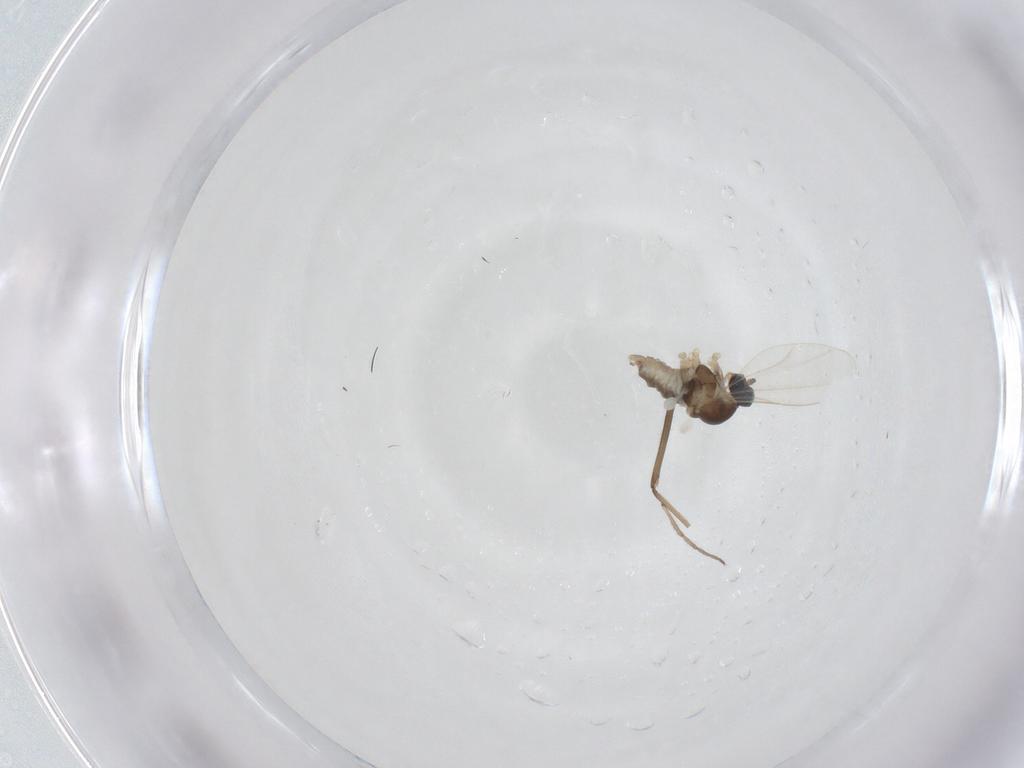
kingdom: Animalia
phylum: Arthropoda
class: Insecta
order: Diptera
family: Cecidomyiidae
